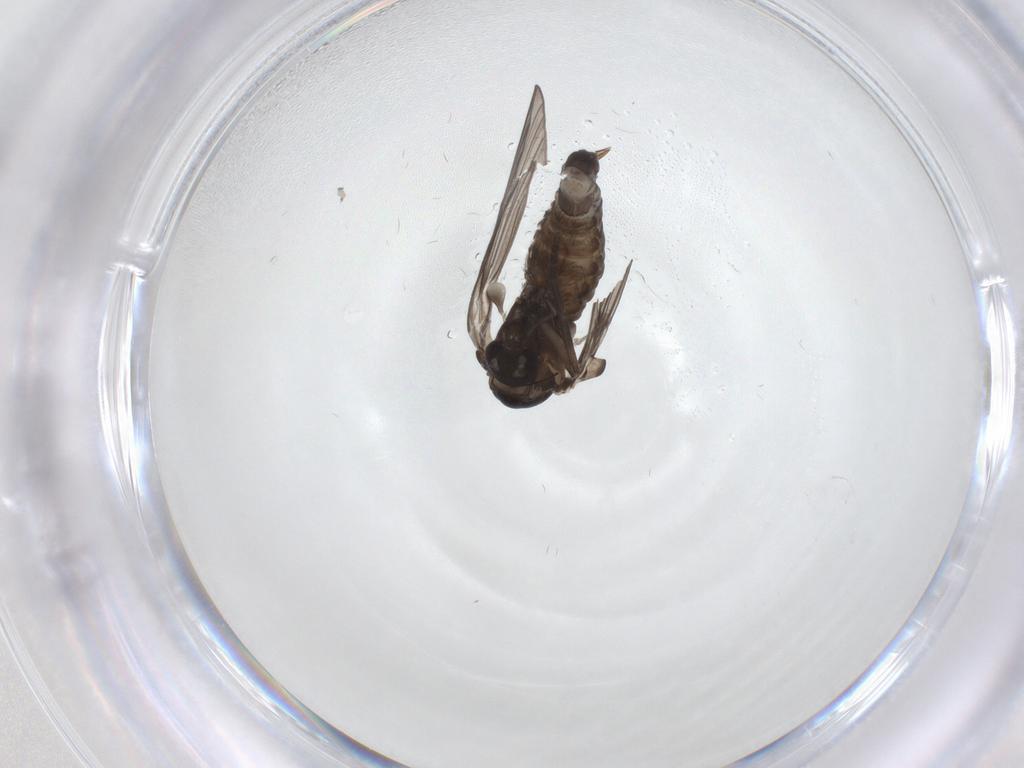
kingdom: Animalia
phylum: Arthropoda
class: Insecta
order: Diptera
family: Psychodidae
